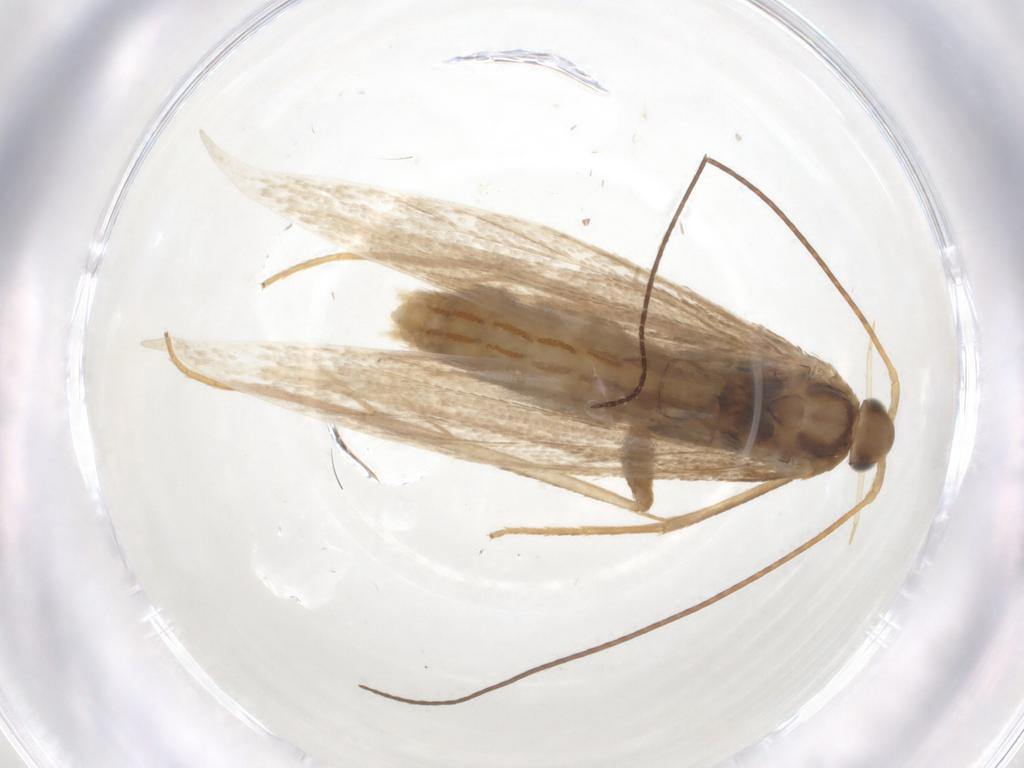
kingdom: Animalia
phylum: Arthropoda
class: Insecta
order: Lepidoptera
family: Coleophoridae
